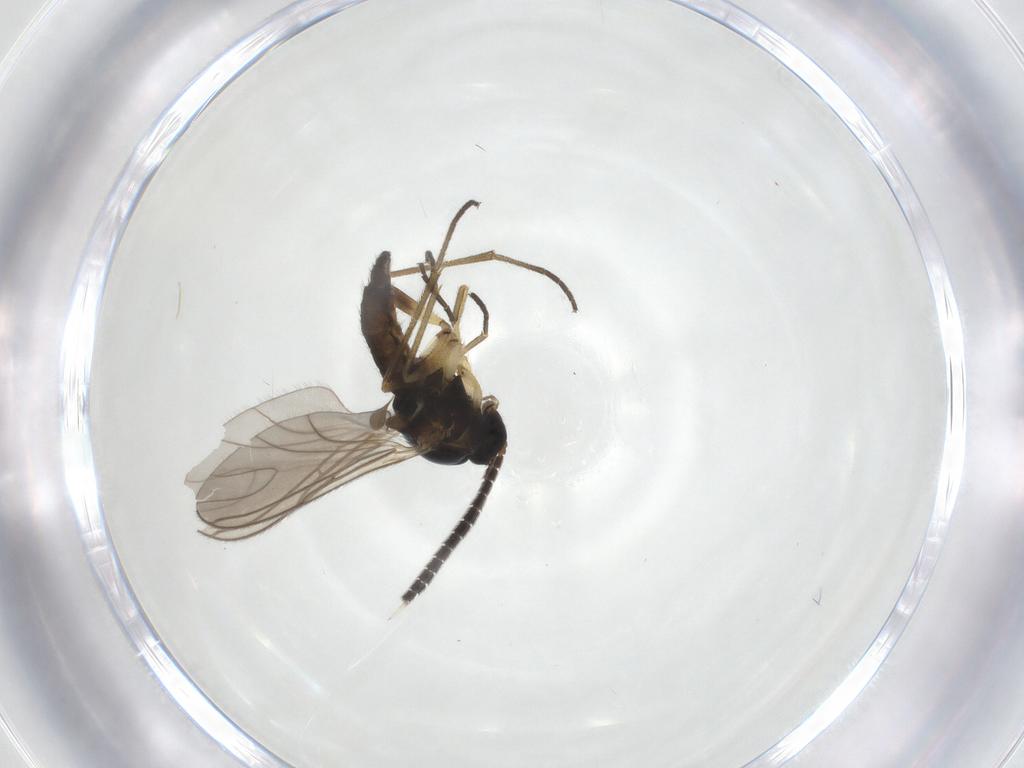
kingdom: Animalia
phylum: Arthropoda
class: Insecta
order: Diptera
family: Sciaridae
